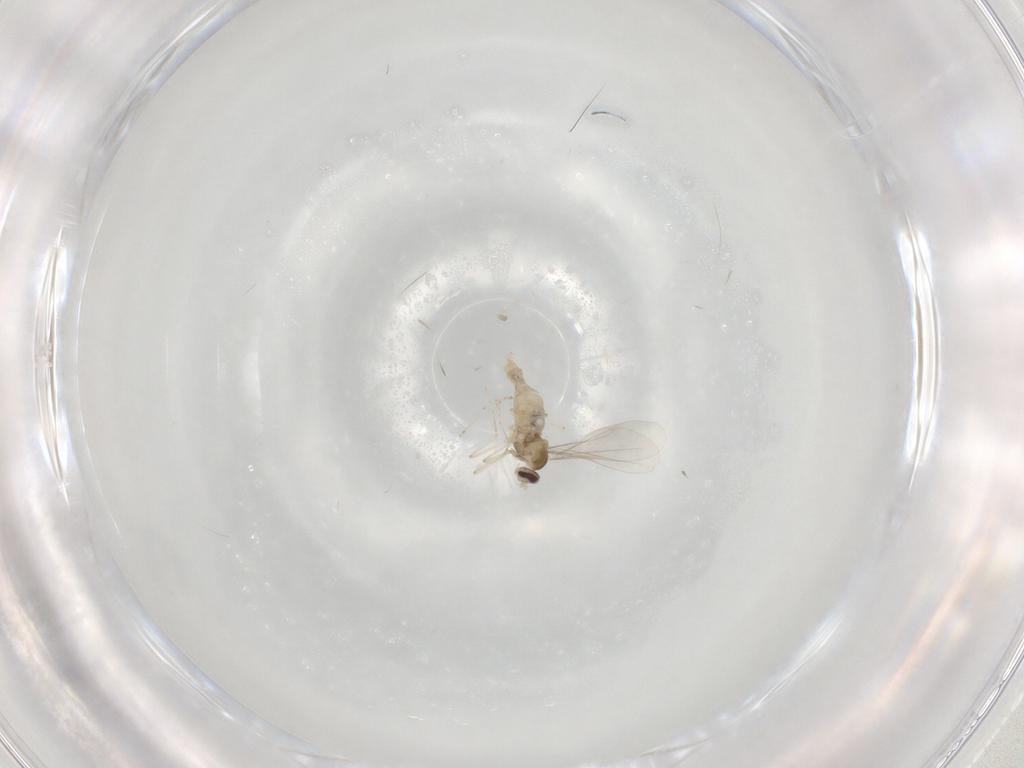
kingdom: Animalia
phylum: Arthropoda
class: Insecta
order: Diptera
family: Cecidomyiidae
